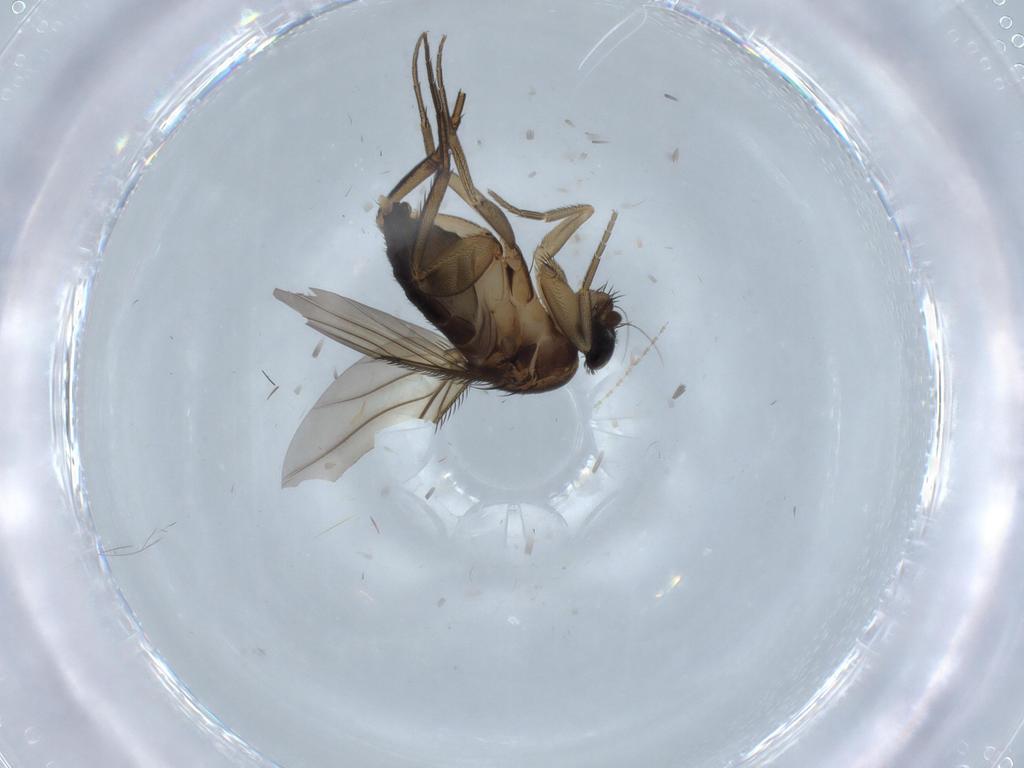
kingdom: Animalia
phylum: Arthropoda
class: Insecta
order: Diptera
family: Phoridae
